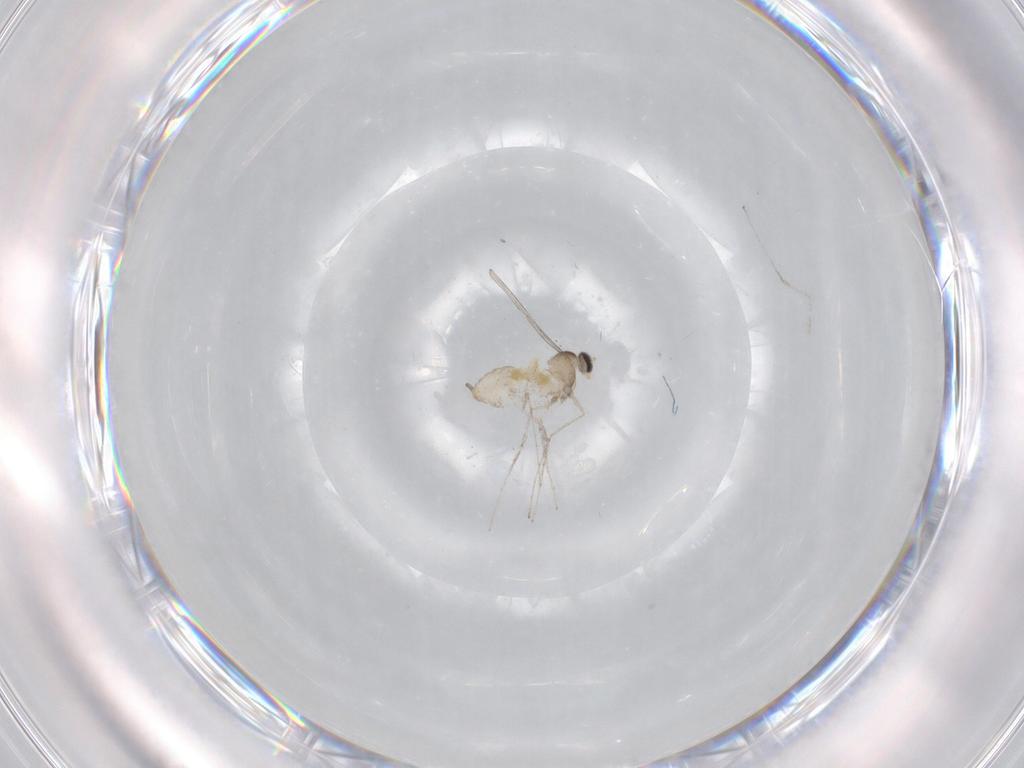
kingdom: Animalia
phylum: Arthropoda
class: Insecta
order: Diptera
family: Cecidomyiidae
